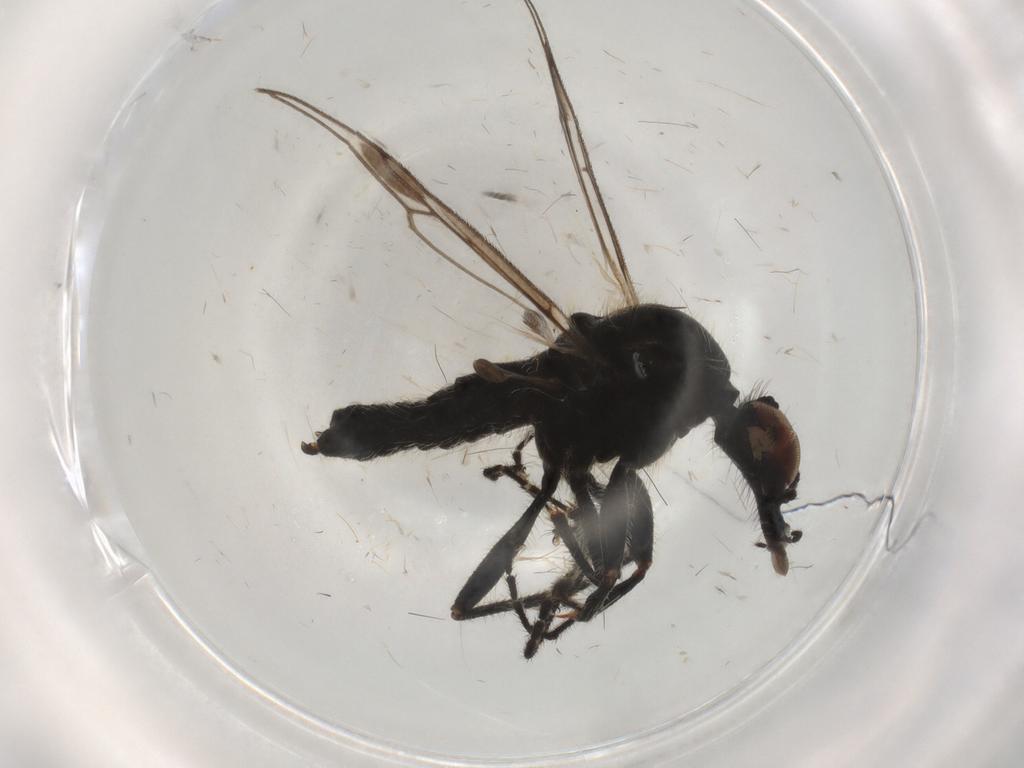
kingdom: Animalia
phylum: Arthropoda
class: Insecta
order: Diptera
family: Bibionidae
